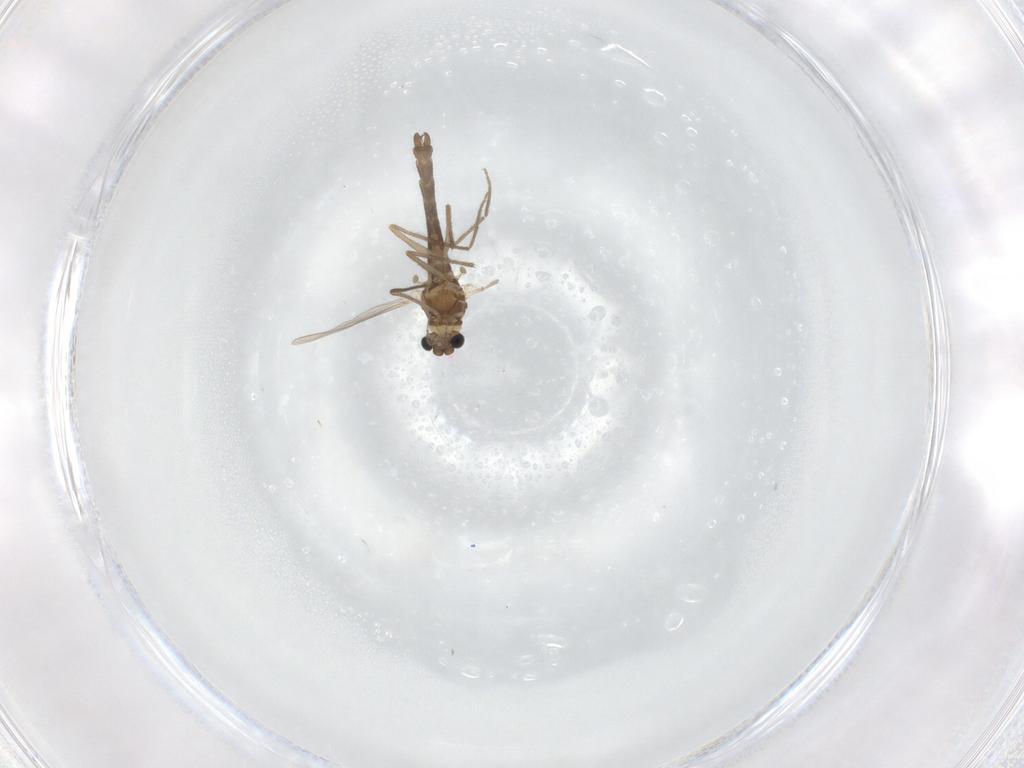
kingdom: Animalia
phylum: Arthropoda
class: Insecta
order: Diptera
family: Chironomidae
